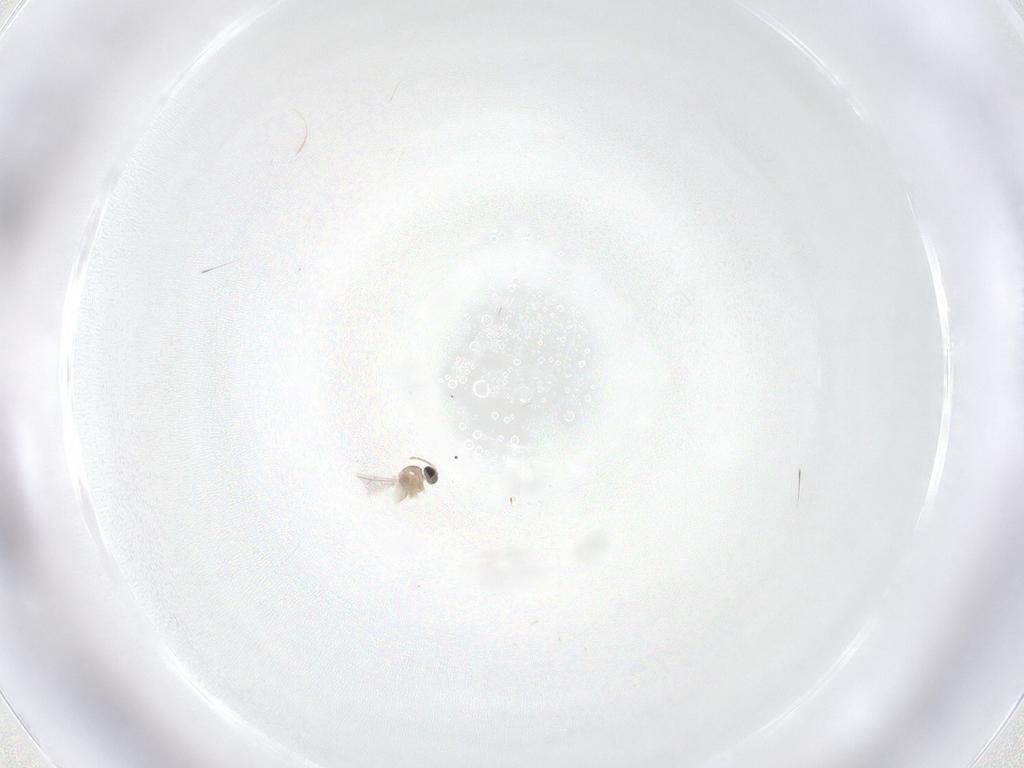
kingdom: Animalia
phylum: Arthropoda
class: Insecta
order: Diptera
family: Cecidomyiidae
